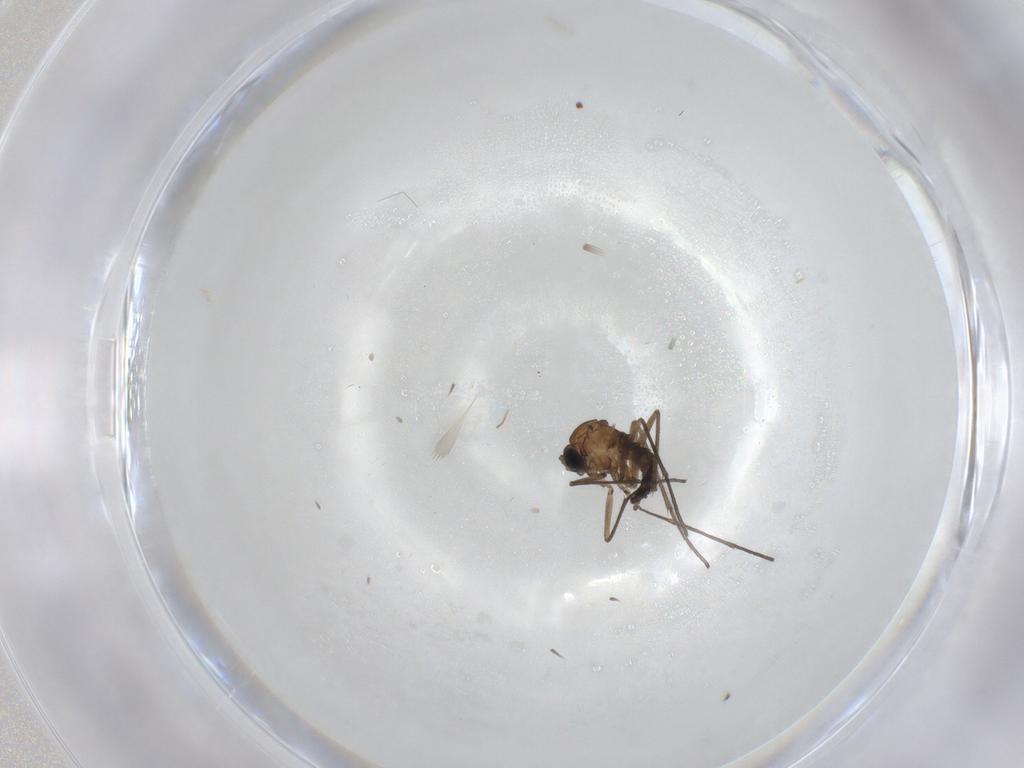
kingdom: Animalia
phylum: Arthropoda
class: Insecta
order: Diptera
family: Sciaridae
